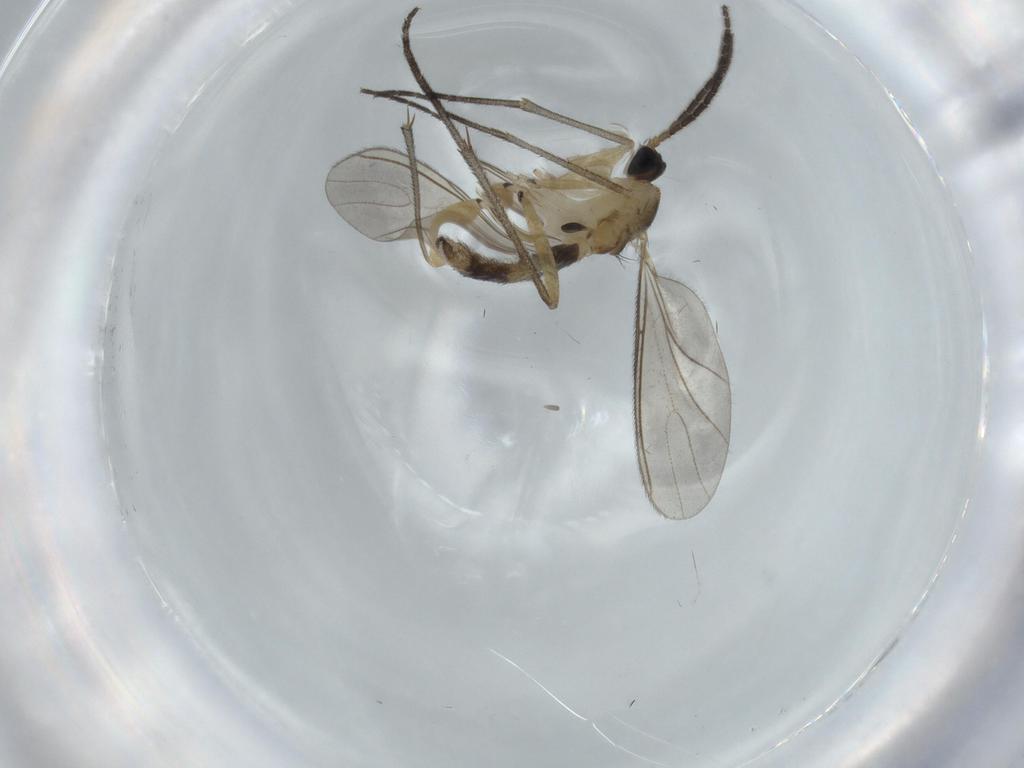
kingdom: Animalia
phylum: Arthropoda
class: Insecta
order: Diptera
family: Sciaridae
